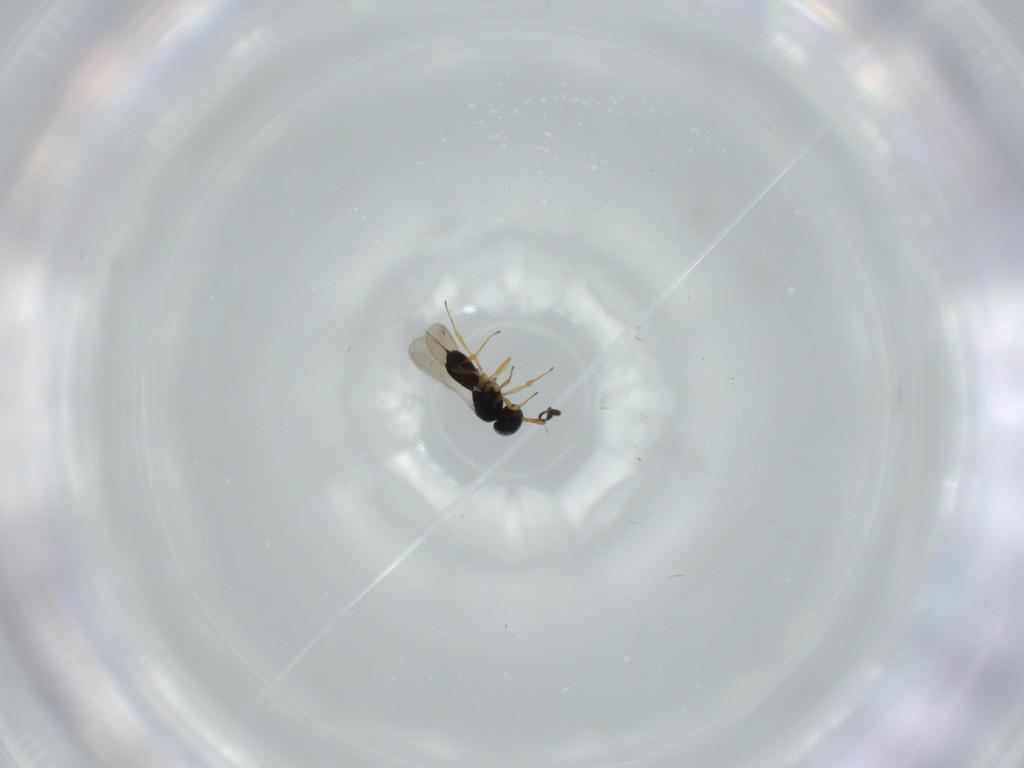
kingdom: Animalia
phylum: Arthropoda
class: Insecta
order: Hymenoptera
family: Scelionidae
